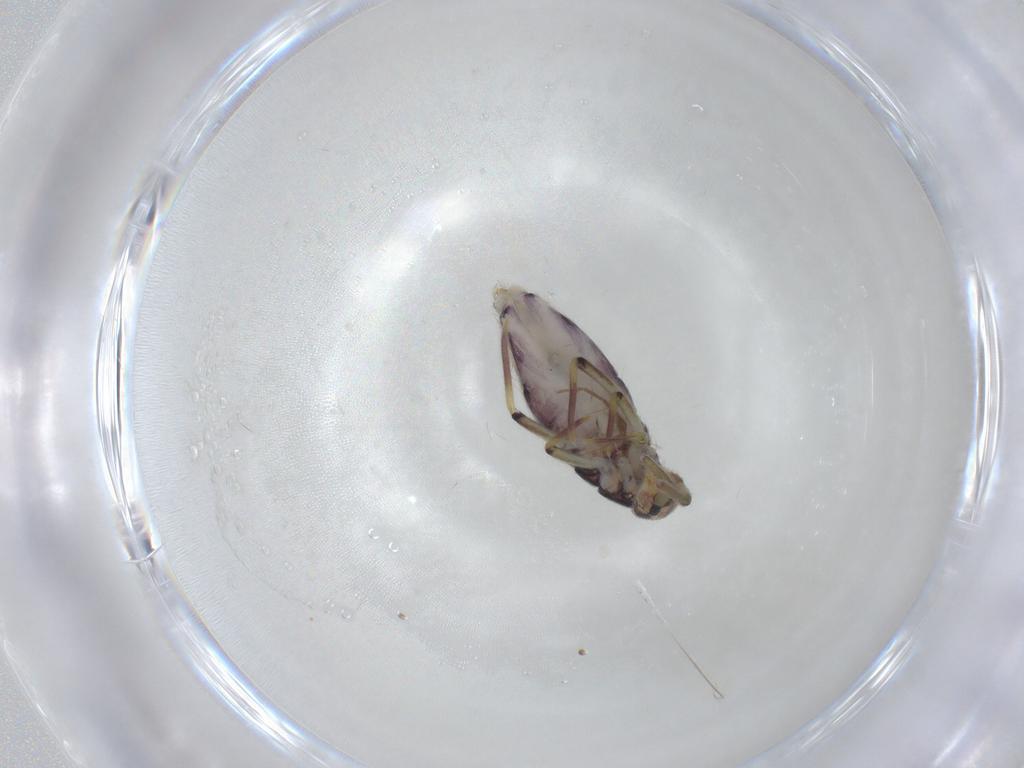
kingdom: Animalia
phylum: Arthropoda
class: Collembola
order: Entomobryomorpha
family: Entomobryidae
